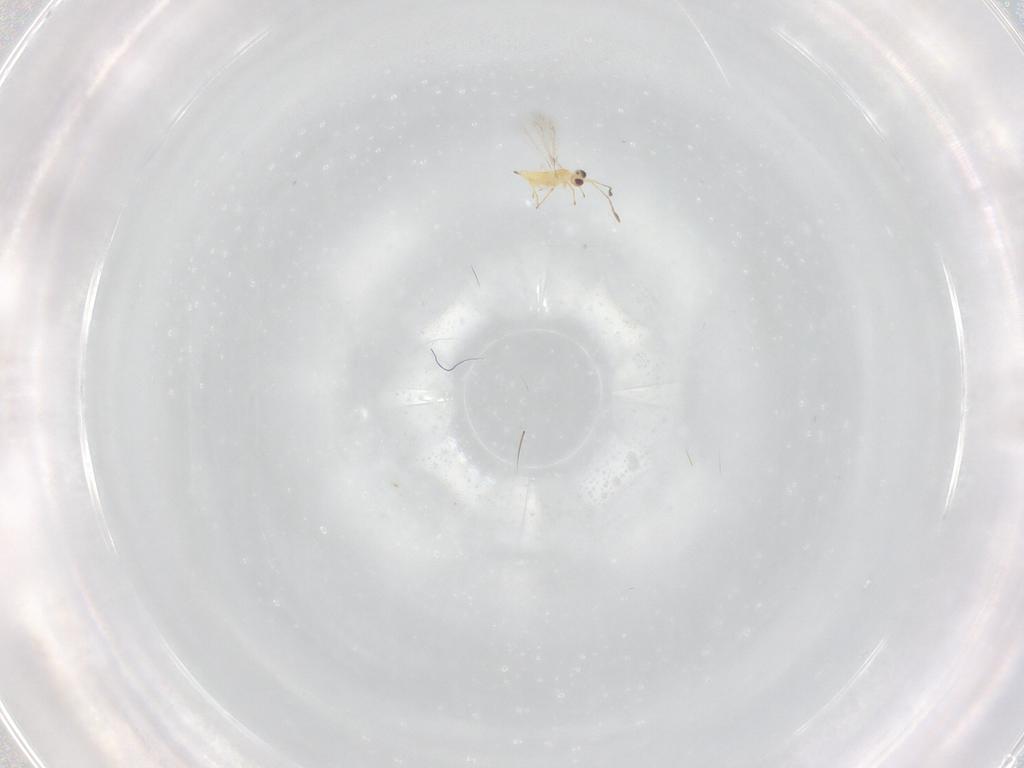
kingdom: Animalia
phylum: Arthropoda
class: Insecta
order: Hymenoptera
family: Mymaridae
